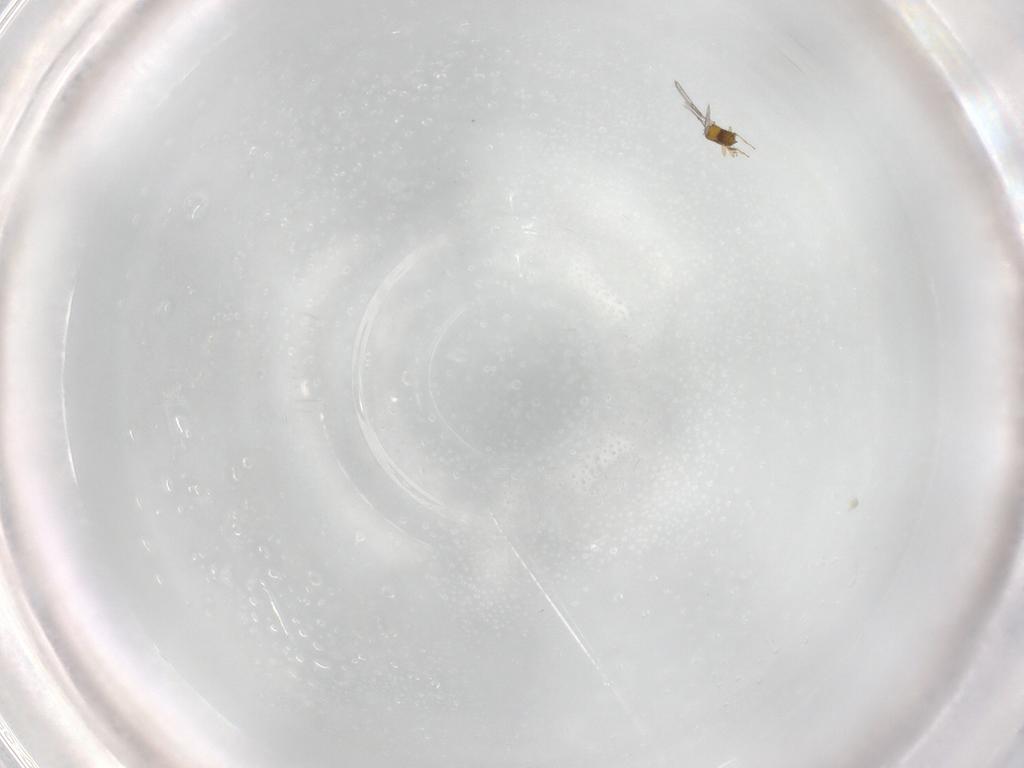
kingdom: Animalia
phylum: Arthropoda
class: Insecta
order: Hymenoptera
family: Trichogrammatidae
